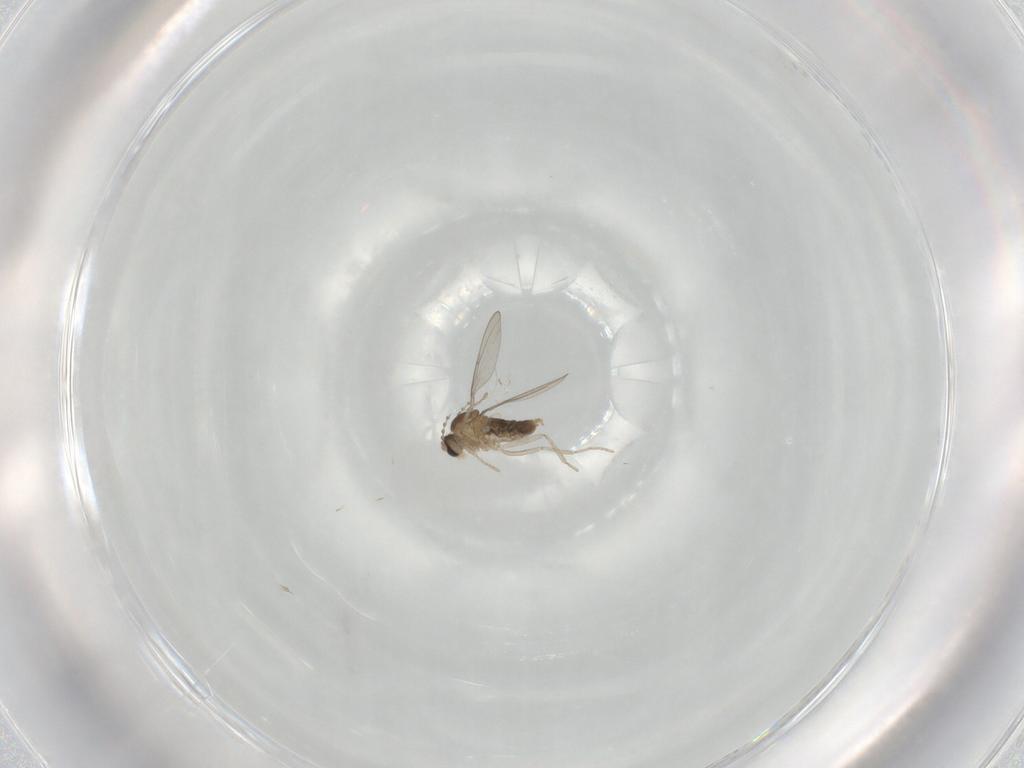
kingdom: Animalia
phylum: Arthropoda
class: Insecta
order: Diptera
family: Cecidomyiidae
